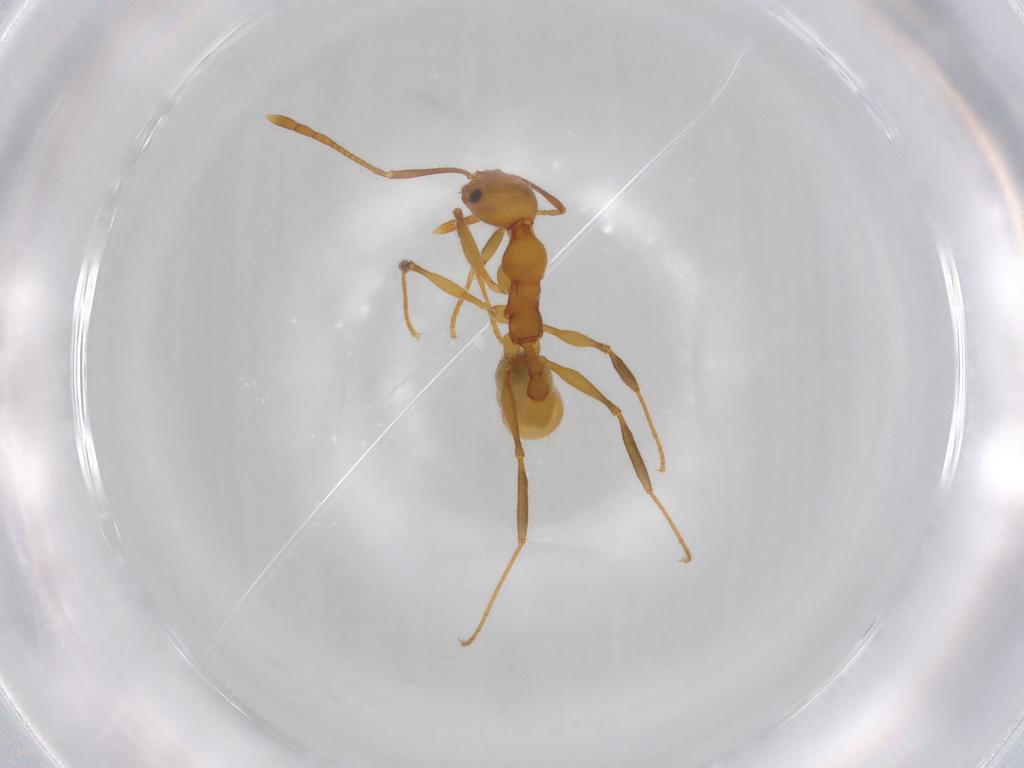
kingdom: Animalia
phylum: Arthropoda
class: Insecta
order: Hymenoptera
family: Formicidae
